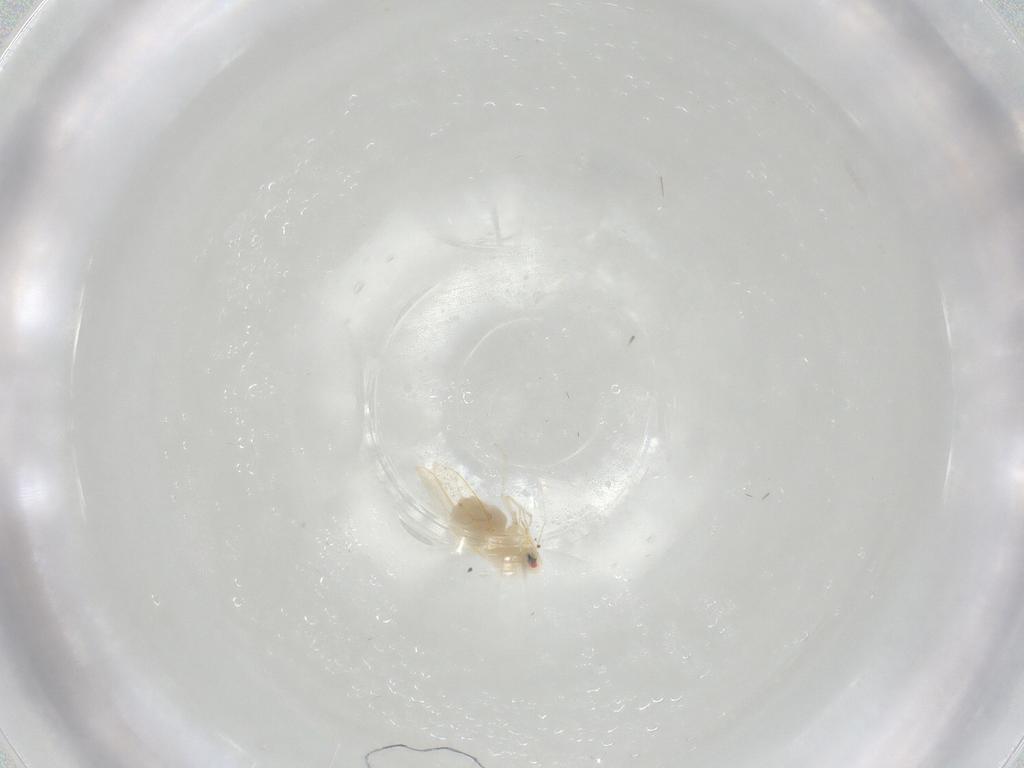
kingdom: Animalia
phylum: Arthropoda
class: Insecta
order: Hemiptera
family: Aleyrodidae
